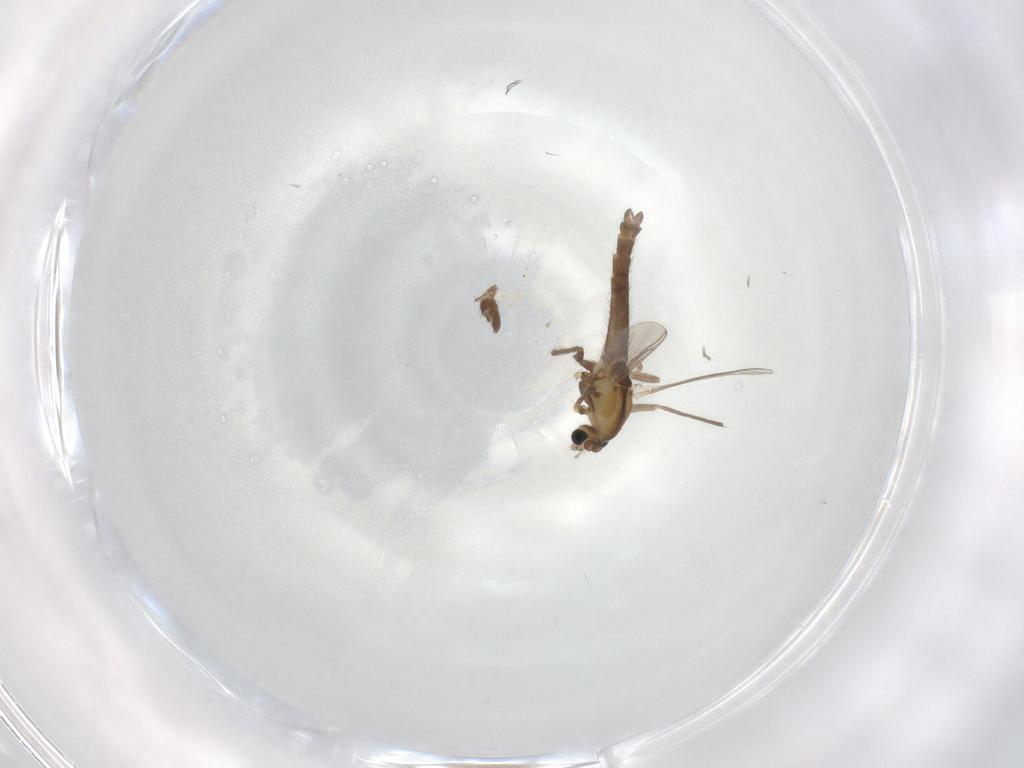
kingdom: Animalia
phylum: Arthropoda
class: Insecta
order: Diptera
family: Chironomidae
